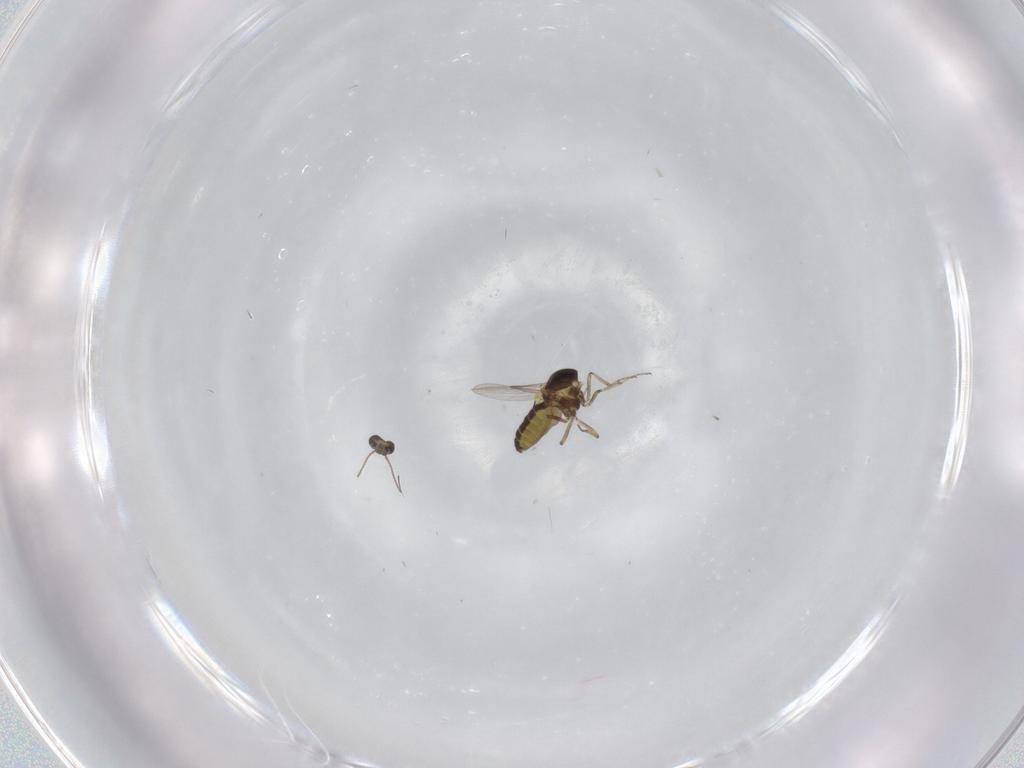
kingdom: Animalia
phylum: Arthropoda
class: Insecta
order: Diptera
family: Ceratopogonidae
